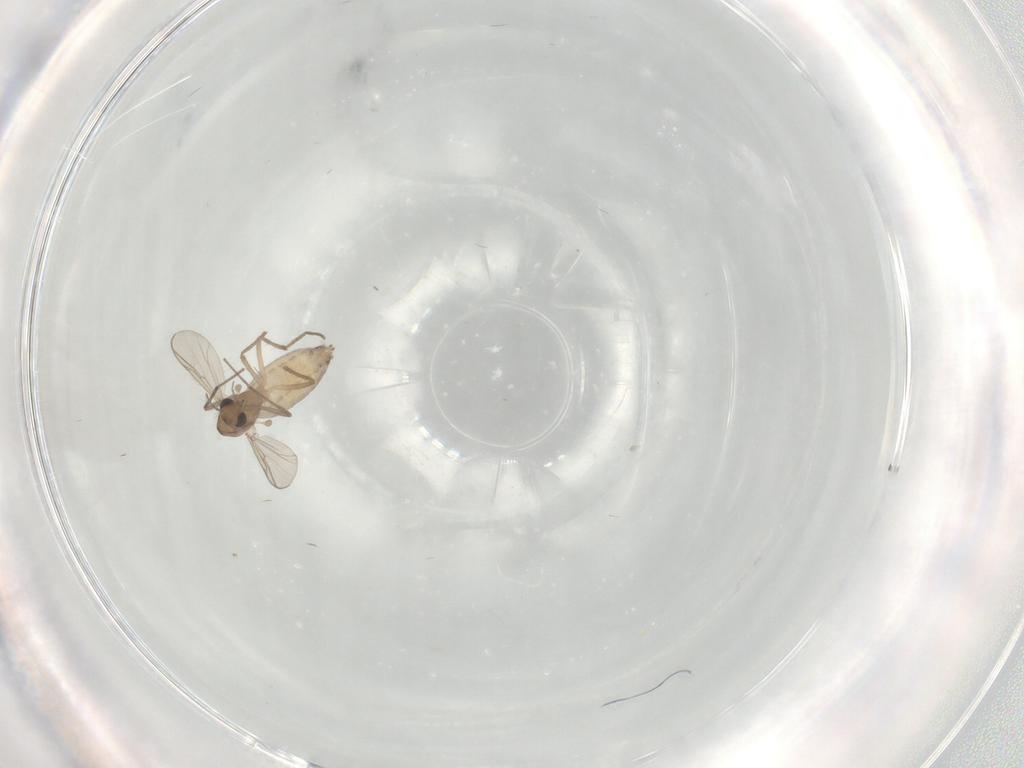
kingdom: Animalia
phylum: Arthropoda
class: Insecta
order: Diptera
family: Chironomidae
